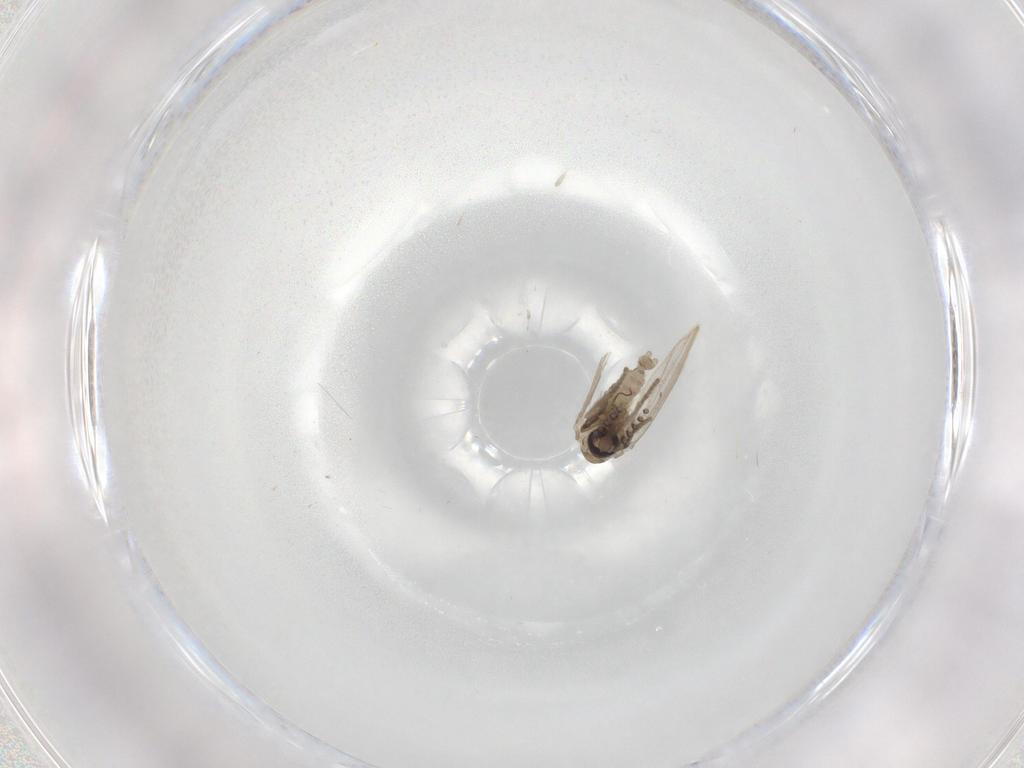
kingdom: Animalia
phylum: Arthropoda
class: Insecta
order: Diptera
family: Psychodidae
